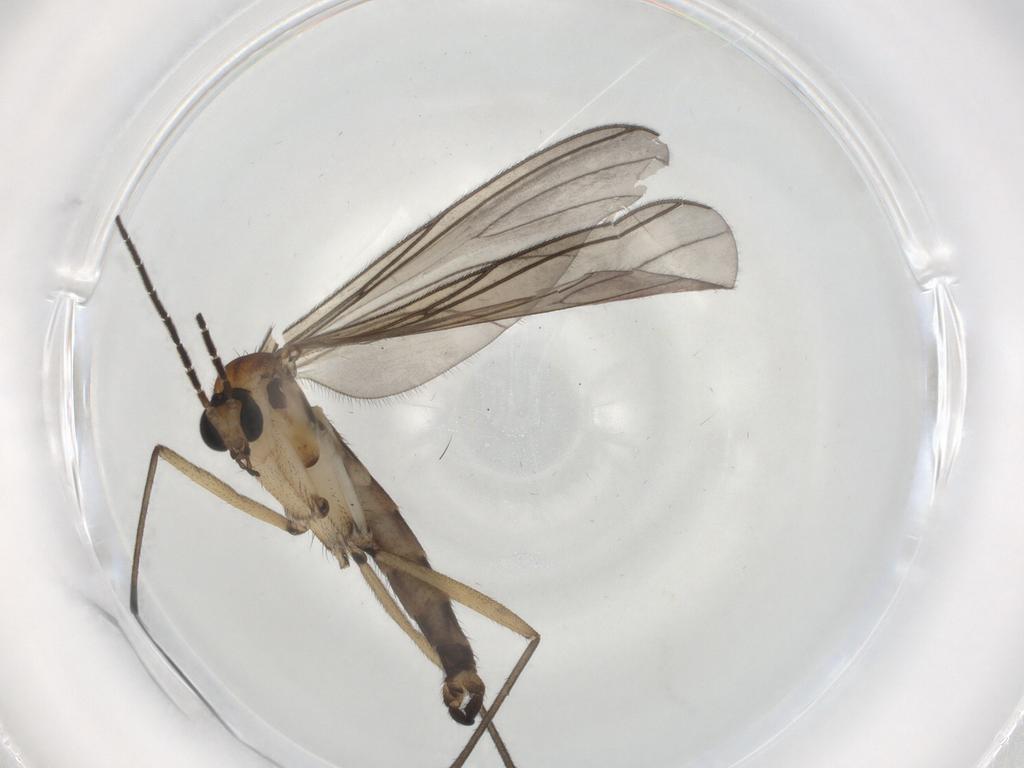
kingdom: Animalia
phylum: Arthropoda
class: Insecta
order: Diptera
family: Sciaridae
